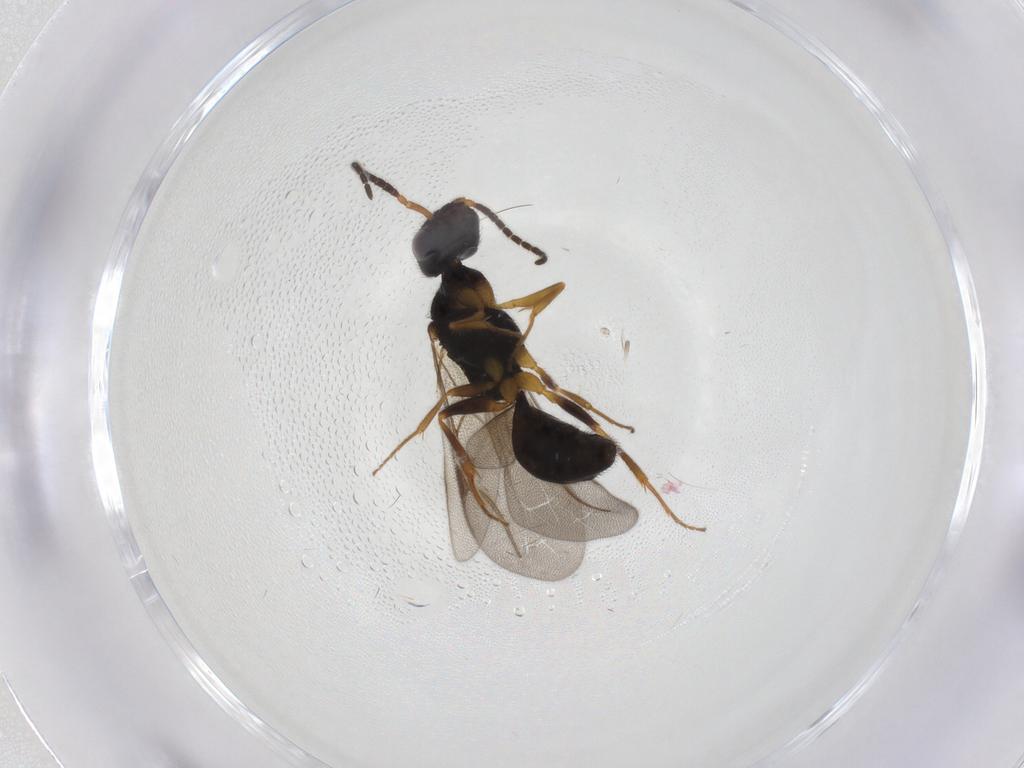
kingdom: Animalia
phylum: Arthropoda
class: Insecta
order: Hymenoptera
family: Bethylidae
